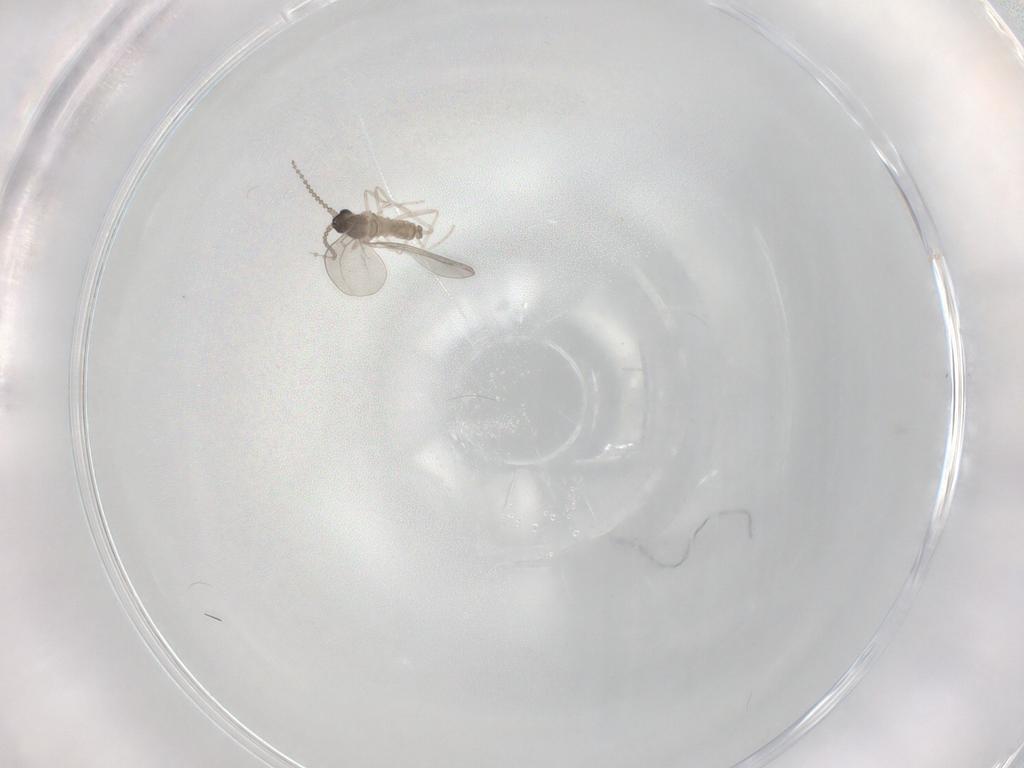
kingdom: Animalia
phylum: Arthropoda
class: Insecta
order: Diptera
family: Cecidomyiidae
